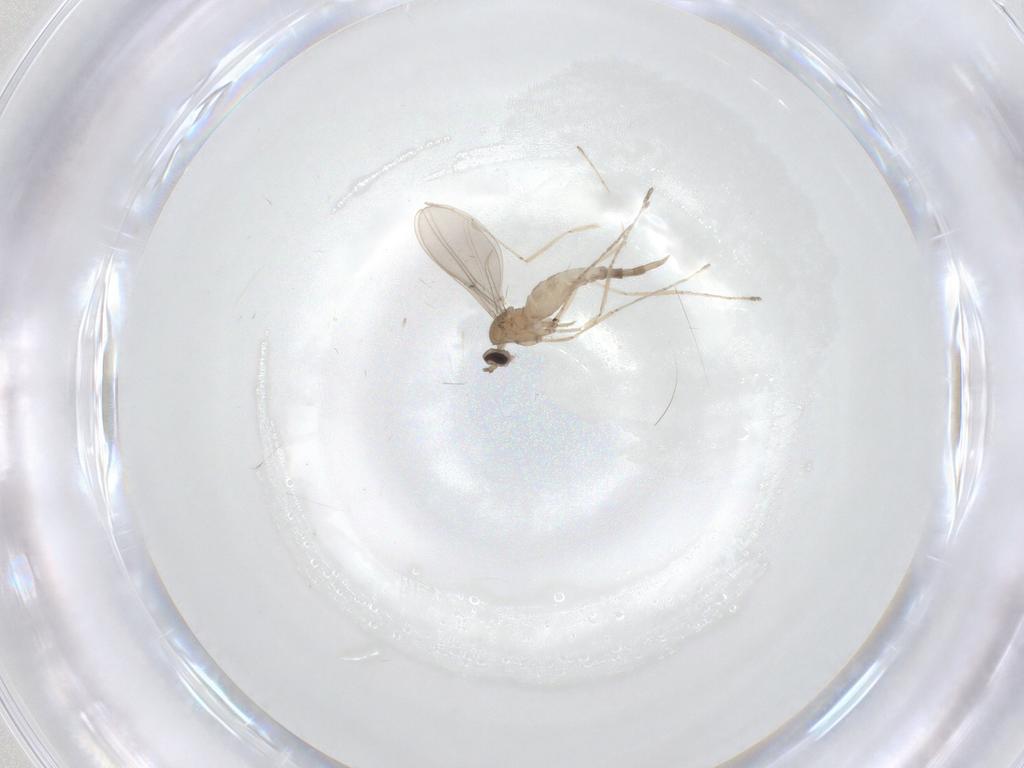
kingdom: Animalia
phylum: Arthropoda
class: Insecta
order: Diptera
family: Cecidomyiidae
